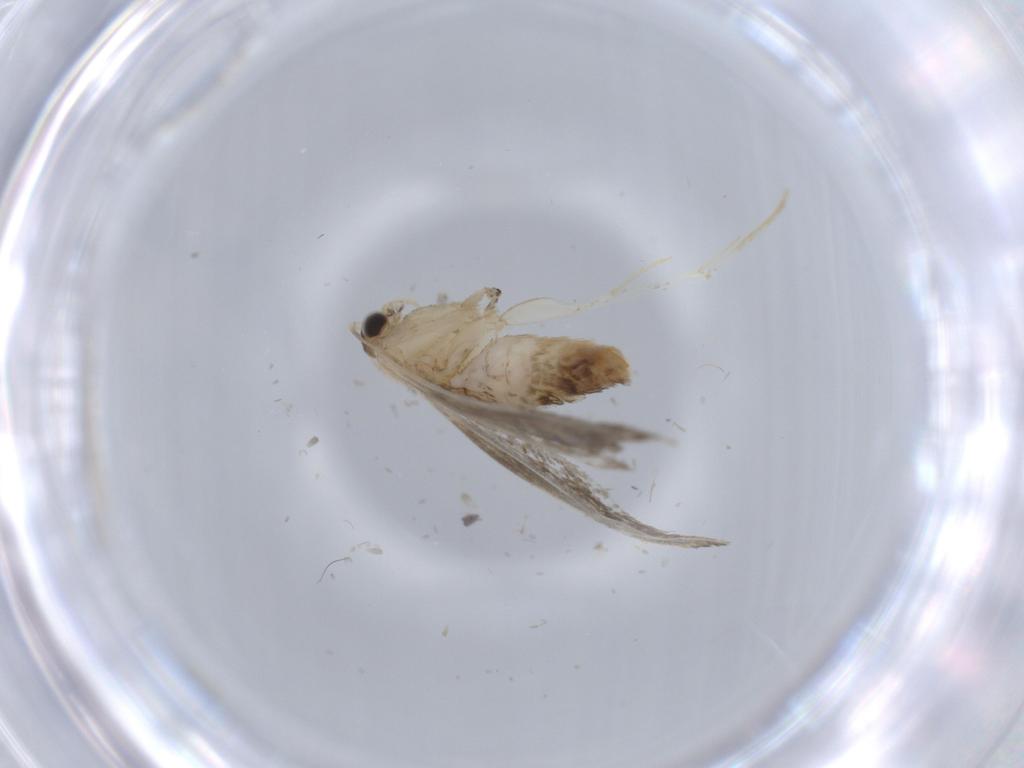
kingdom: Animalia
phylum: Arthropoda
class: Insecta
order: Lepidoptera
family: Tineidae
